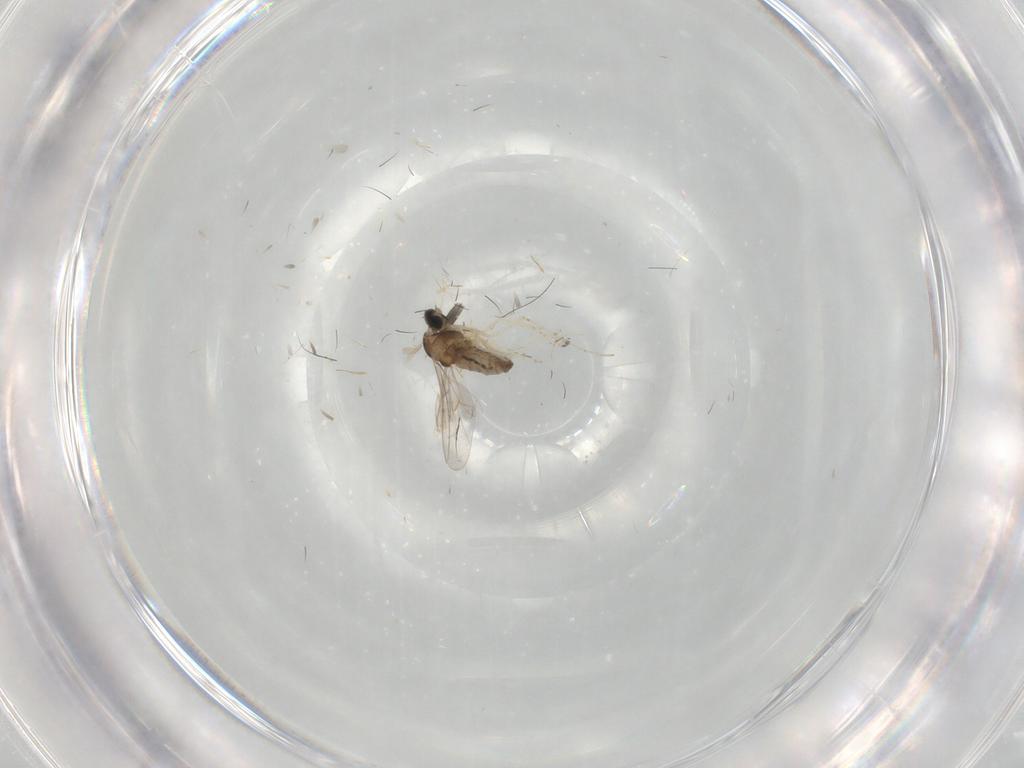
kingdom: Animalia
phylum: Arthropoda
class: Insecta
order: Diptera
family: Cecidomyiidae
